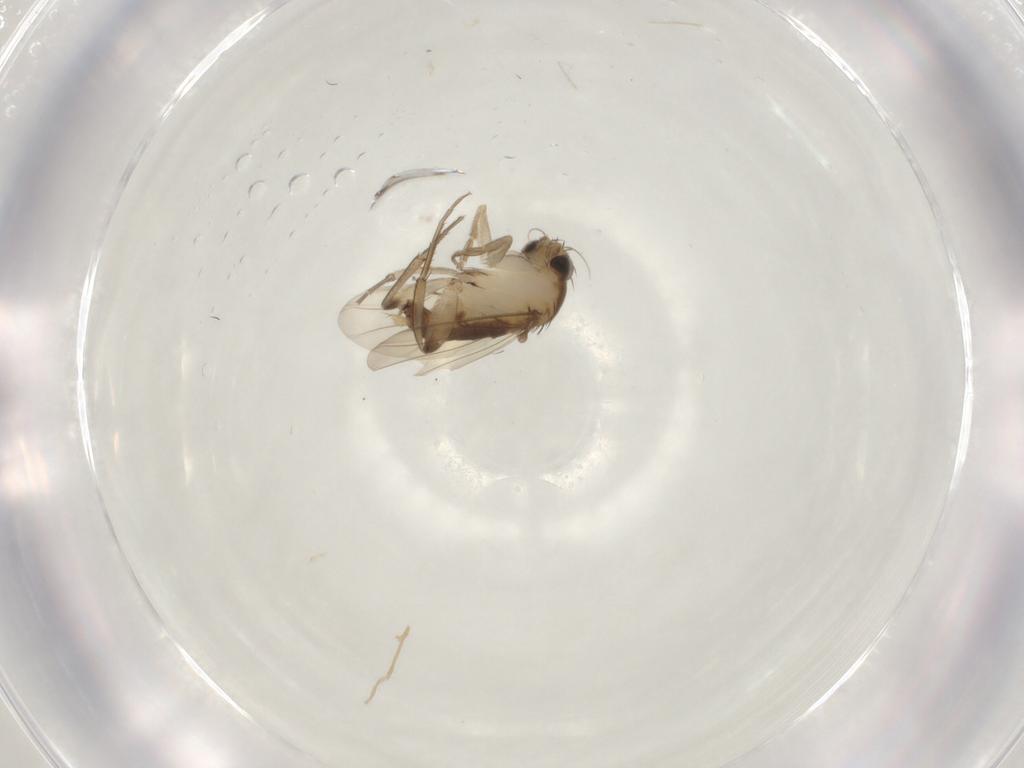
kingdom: Animalia
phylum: Arthropoda
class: Insecta
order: Diptera
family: Phoridae
